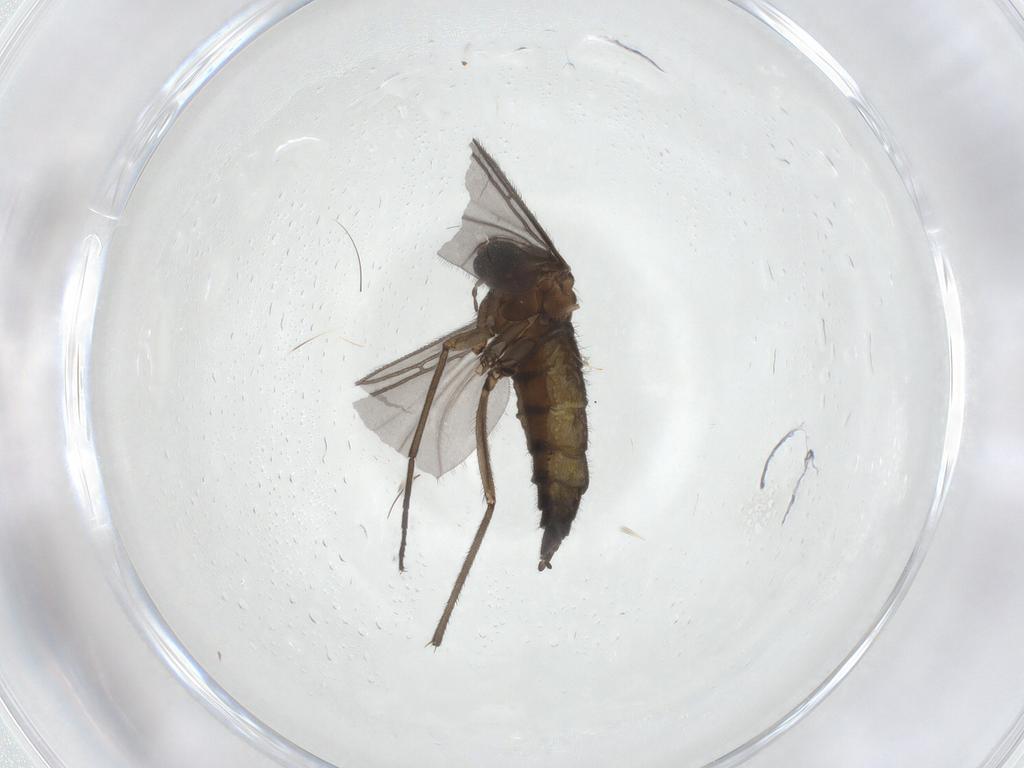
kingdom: Animalia
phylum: Arthropoda
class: Insecta
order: Diptera
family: Sciaridae
